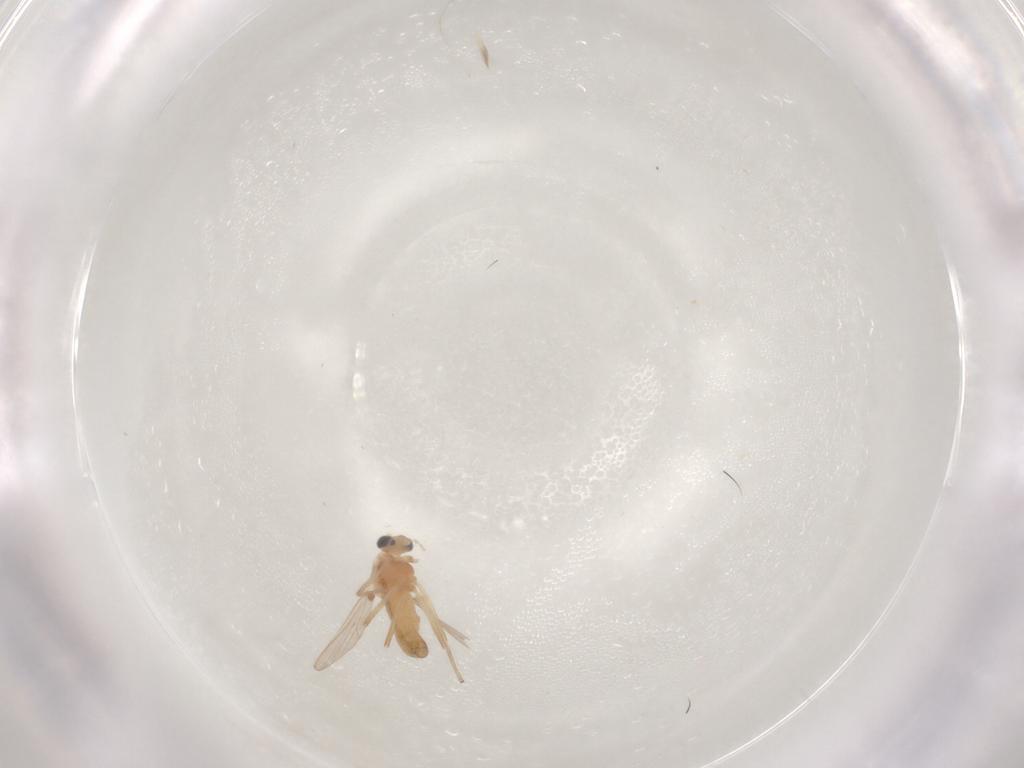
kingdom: Animalia
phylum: Arthropoda
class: Insecta
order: Diptera
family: Chironomidae
